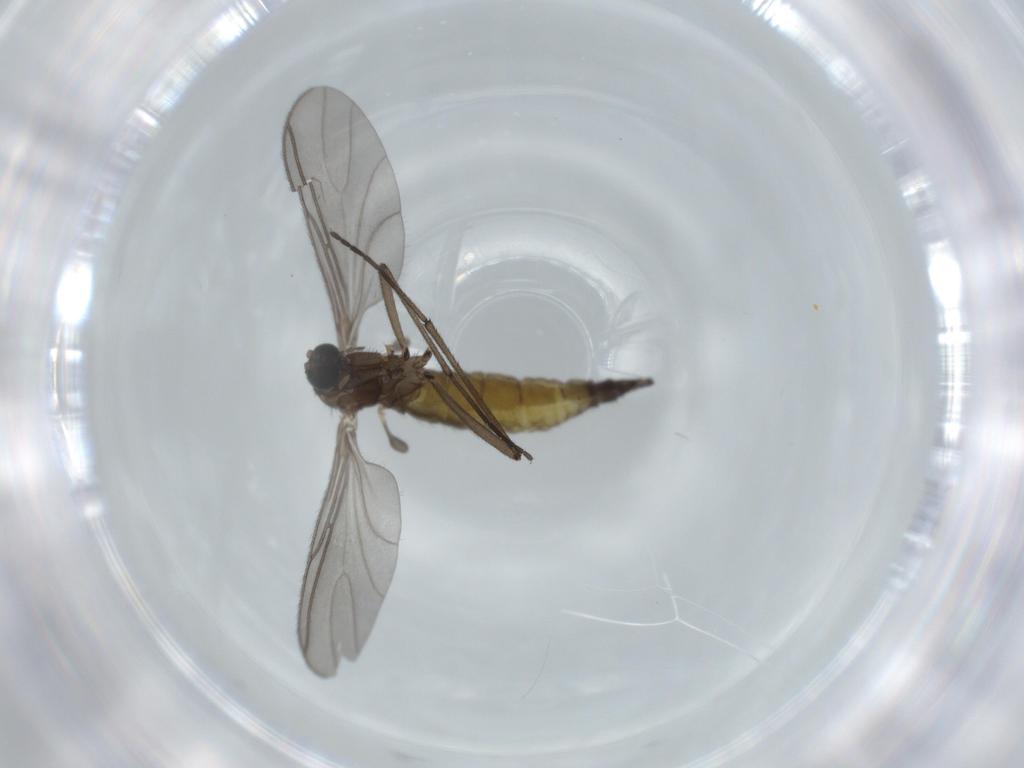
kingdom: Animalia
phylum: Arthropoda
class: Insecta
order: Diptera
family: Sciaridae
